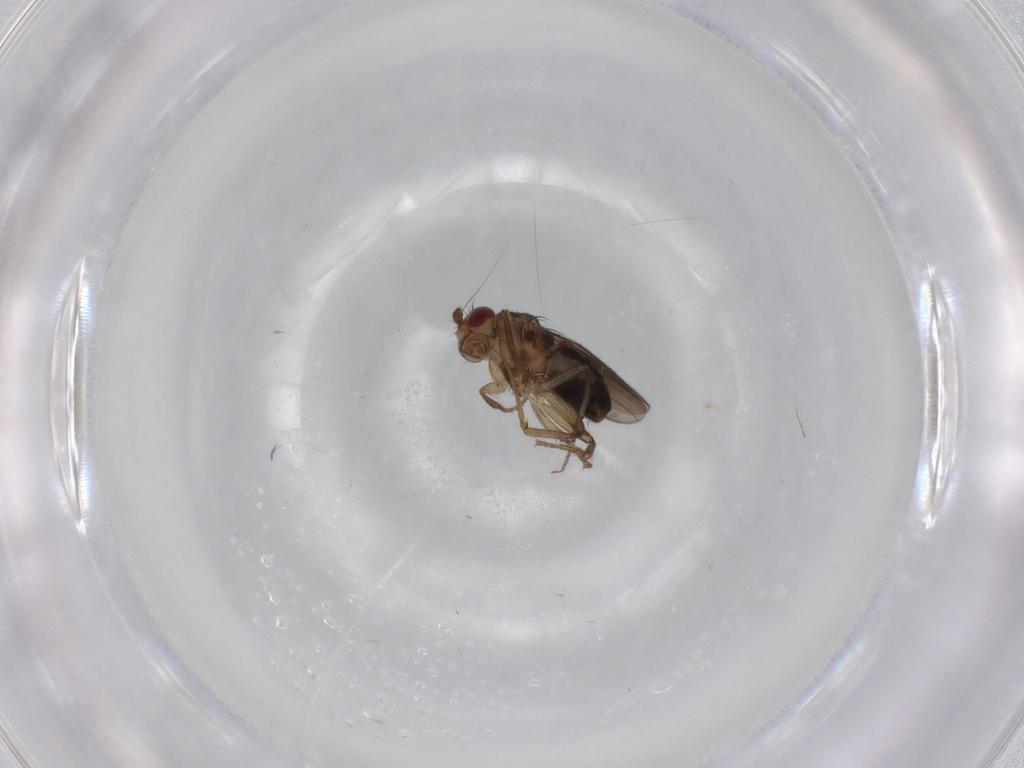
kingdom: Animalia
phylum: Arthropoda
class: Insecta
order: Diptera
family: Sphaeroceridae
